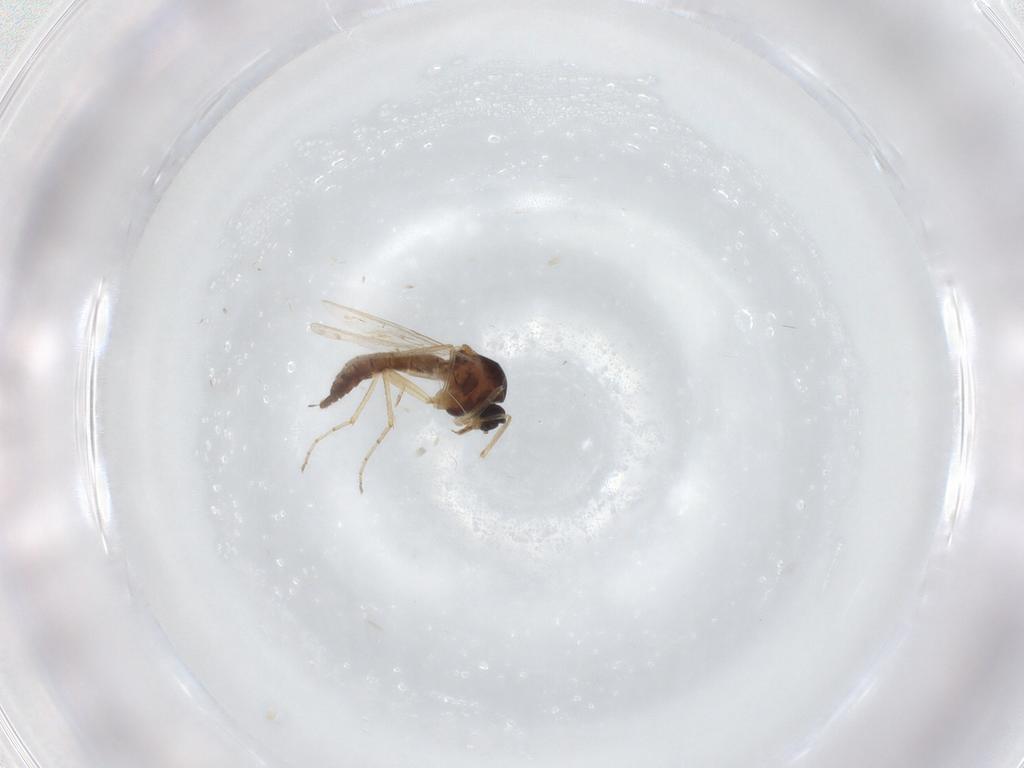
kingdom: Animalia
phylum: Arthropoda
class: Insecta
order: Diptera
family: Ceratopogonidae
